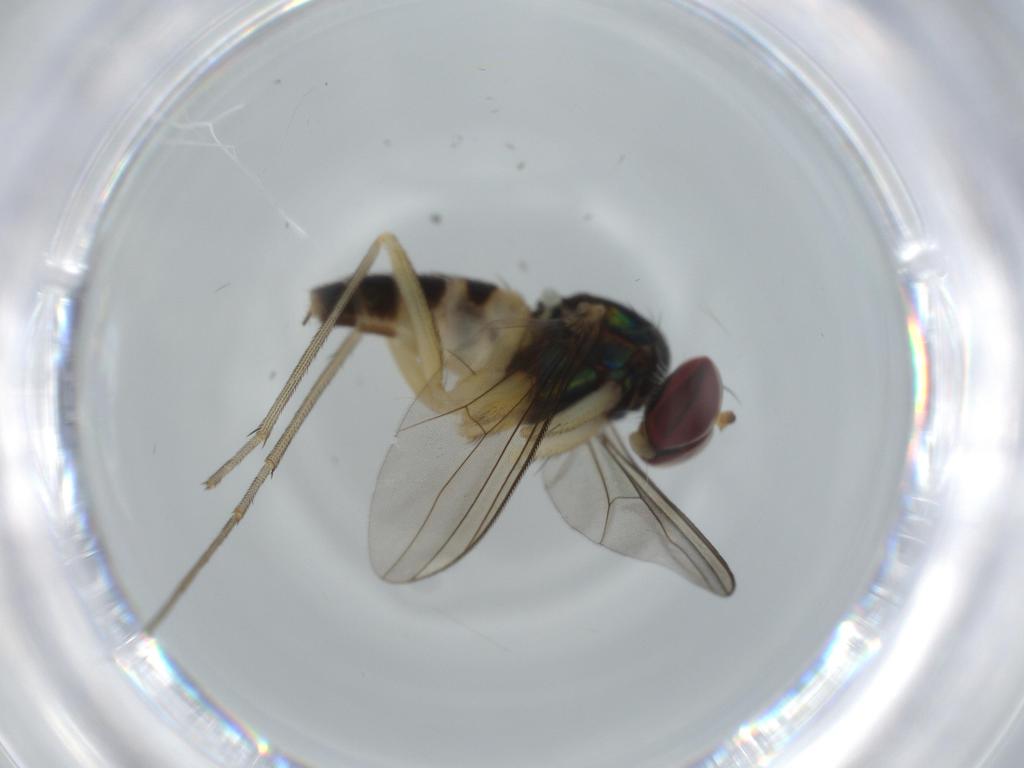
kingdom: Animalia
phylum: Arthropoda
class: Insecta
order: Diptera
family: Dolichopodidae
